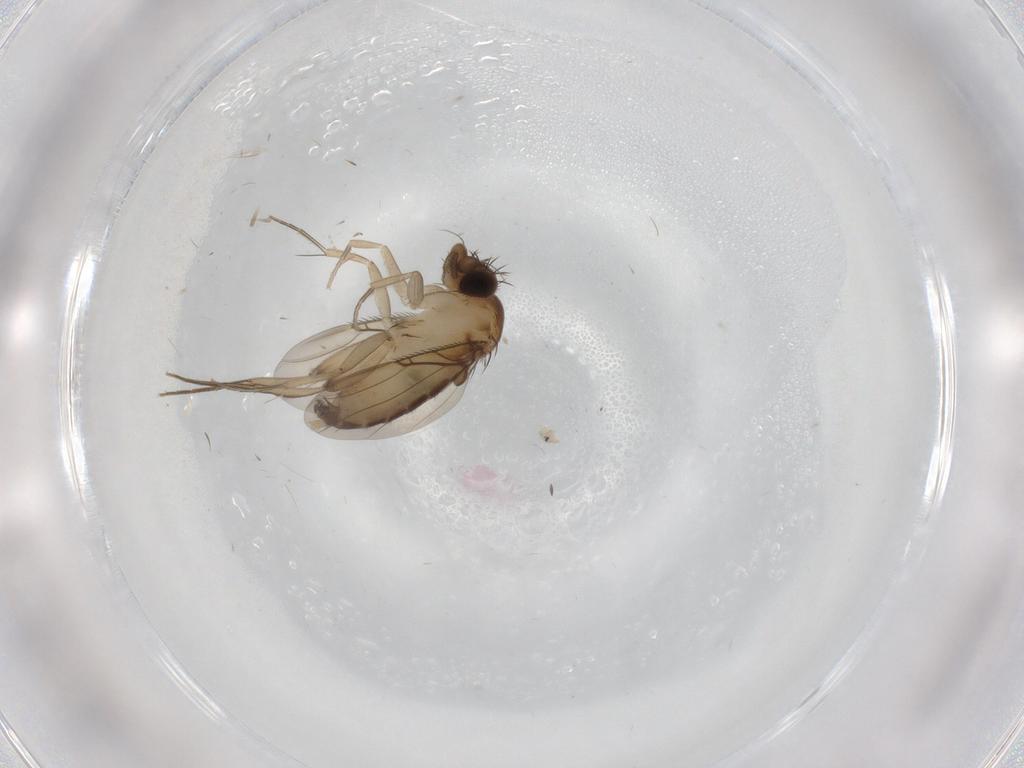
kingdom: Animalia
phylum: Arthropoda
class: Insecta
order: Diptera
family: Phoridae
